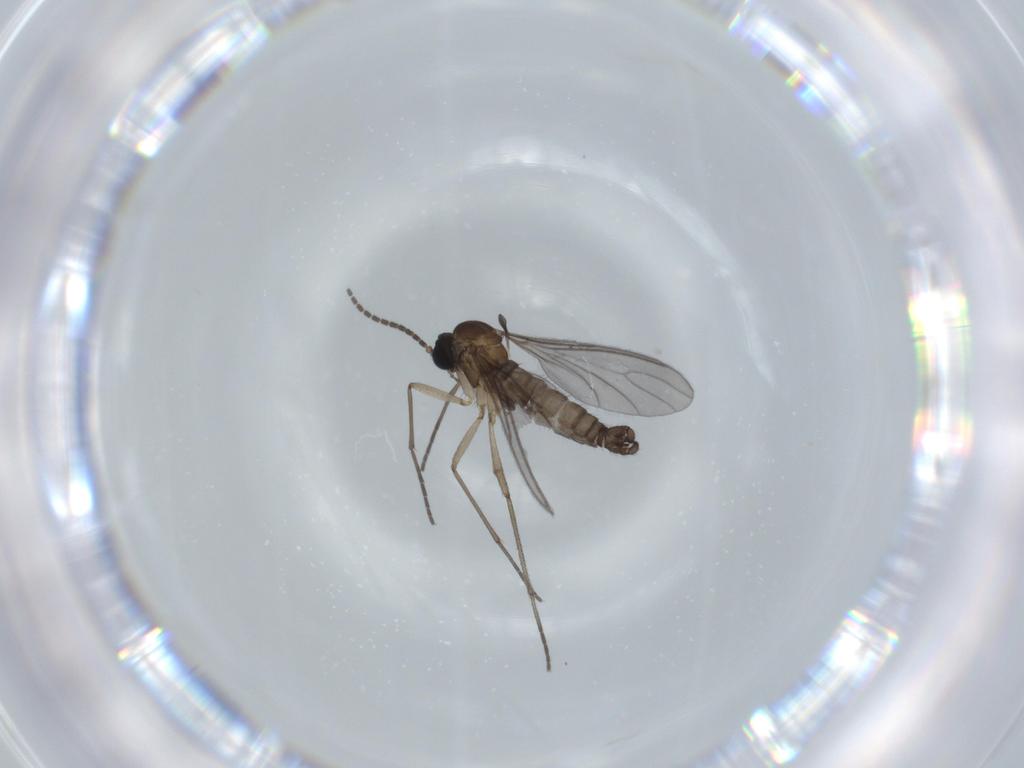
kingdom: Animalia
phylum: Arthropoda
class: Insecta
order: Diptera
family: Sciaridae
